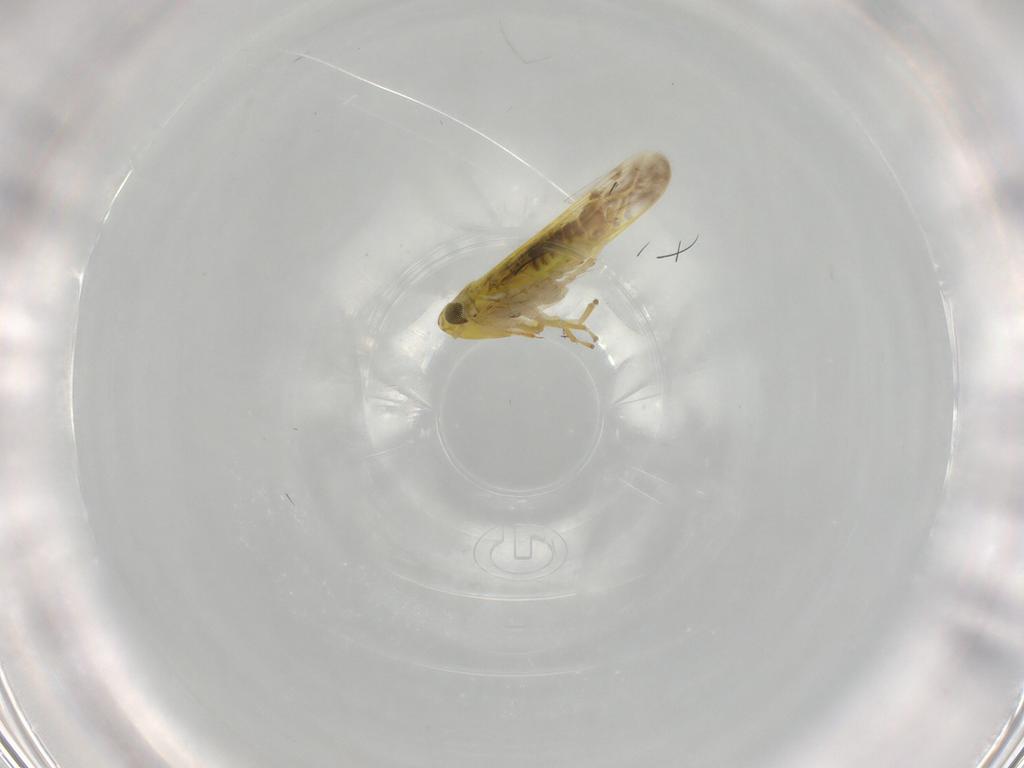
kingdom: Animalia
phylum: Arthropoda
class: Insecta
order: Hemiptera
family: Cicadellidae
